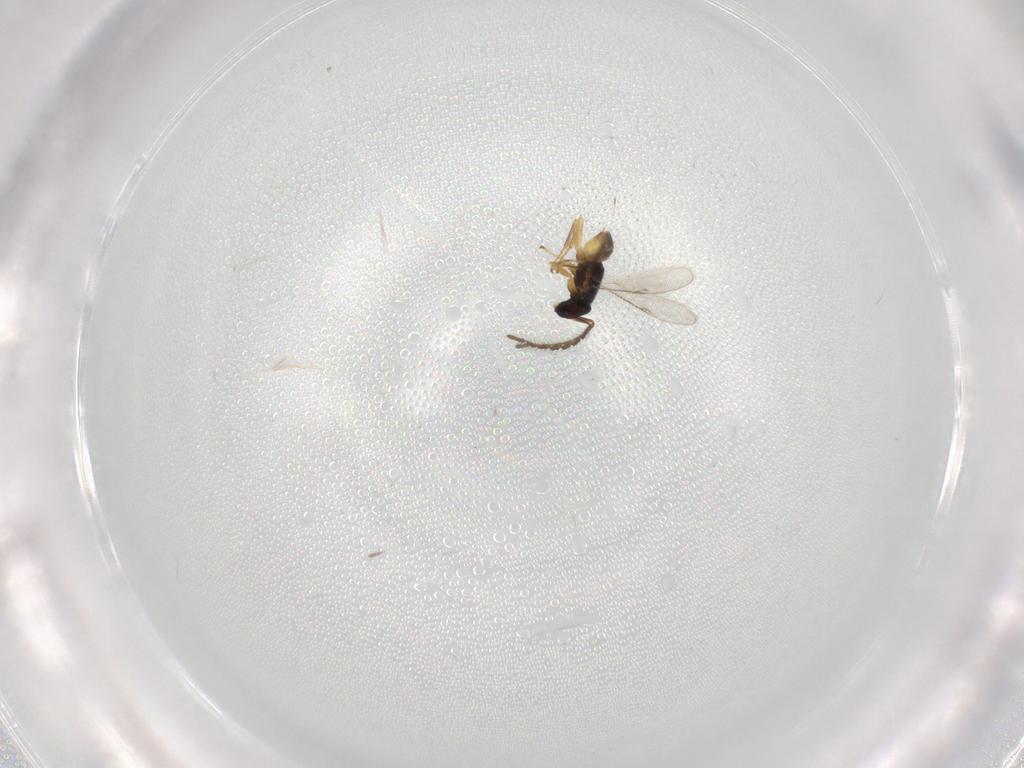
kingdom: Animalia
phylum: Arthropoda
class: Insecta
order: Hymenoptera
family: Encyrtidae
